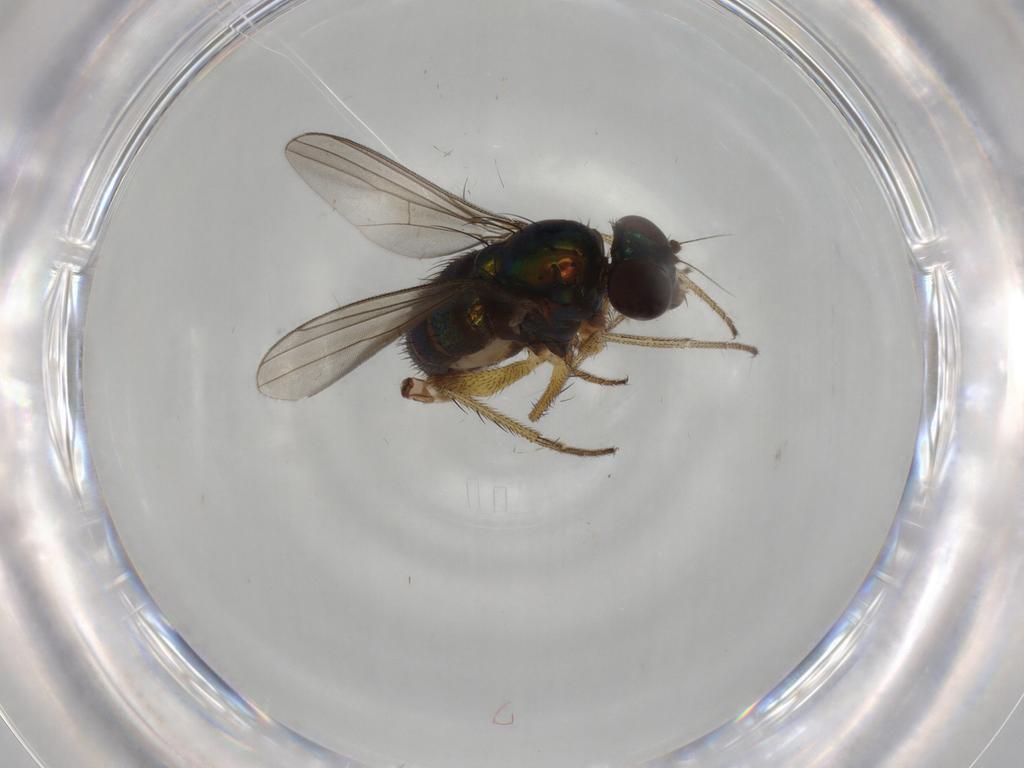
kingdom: Animalia
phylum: Arthropoda
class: Insecta
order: Diptera
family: Dolichopodidae
